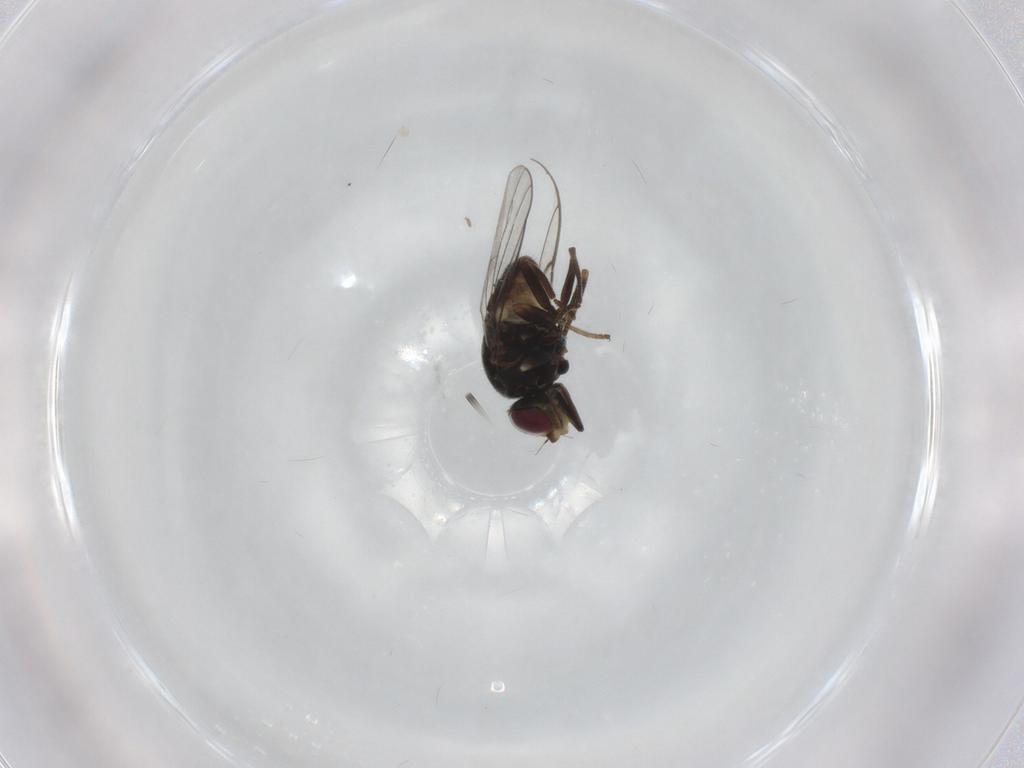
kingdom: Animalia
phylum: Arthropoda
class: Insecta
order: Diptera
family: Chloropidae
